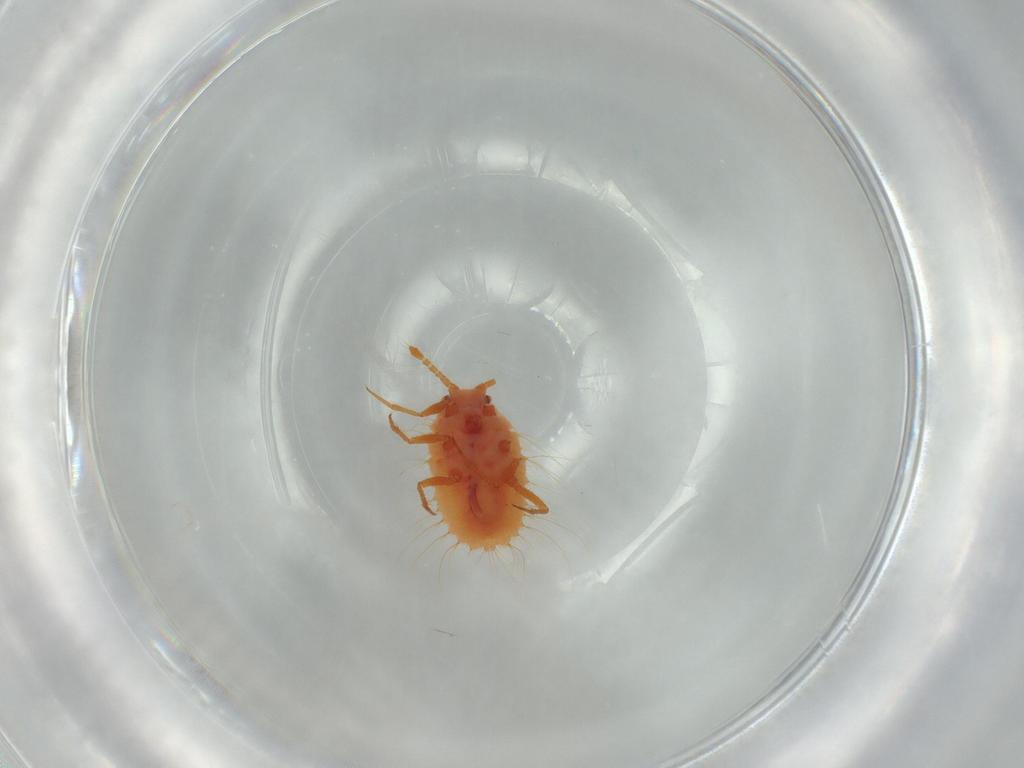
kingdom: Animalia
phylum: Arthropoda
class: Insecta
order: Hemiptera
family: Coccoidea_incertae_sedis
